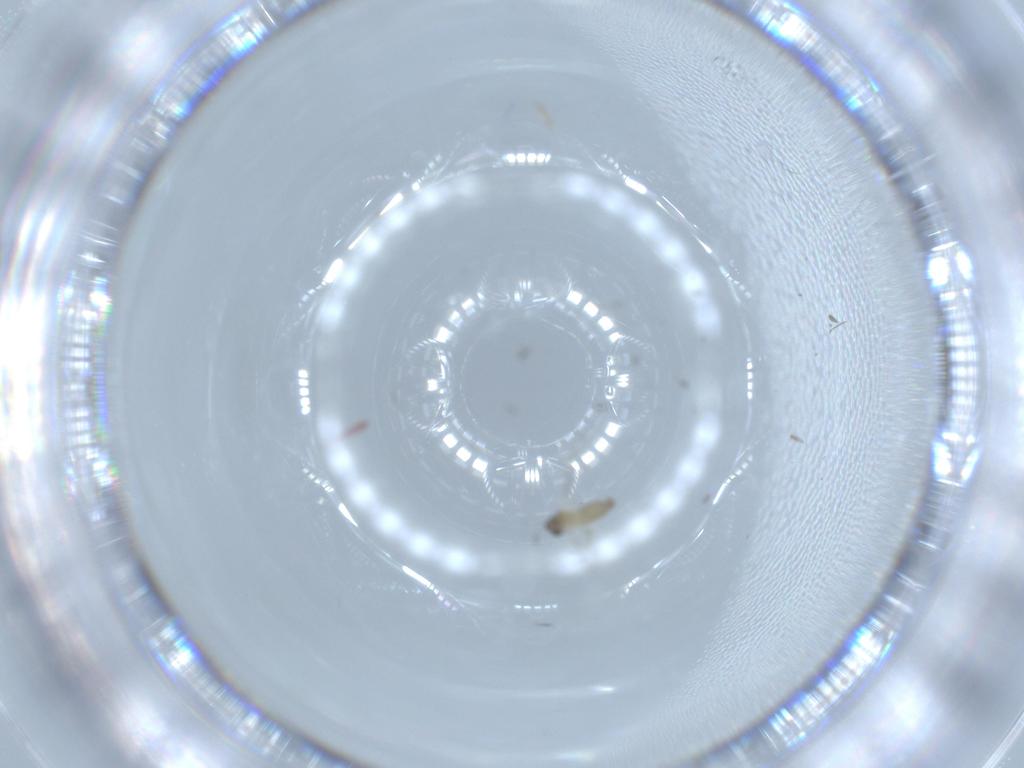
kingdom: Animalia
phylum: Arthropoda
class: Insecta
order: Diptera
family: Cecidomyiidae
